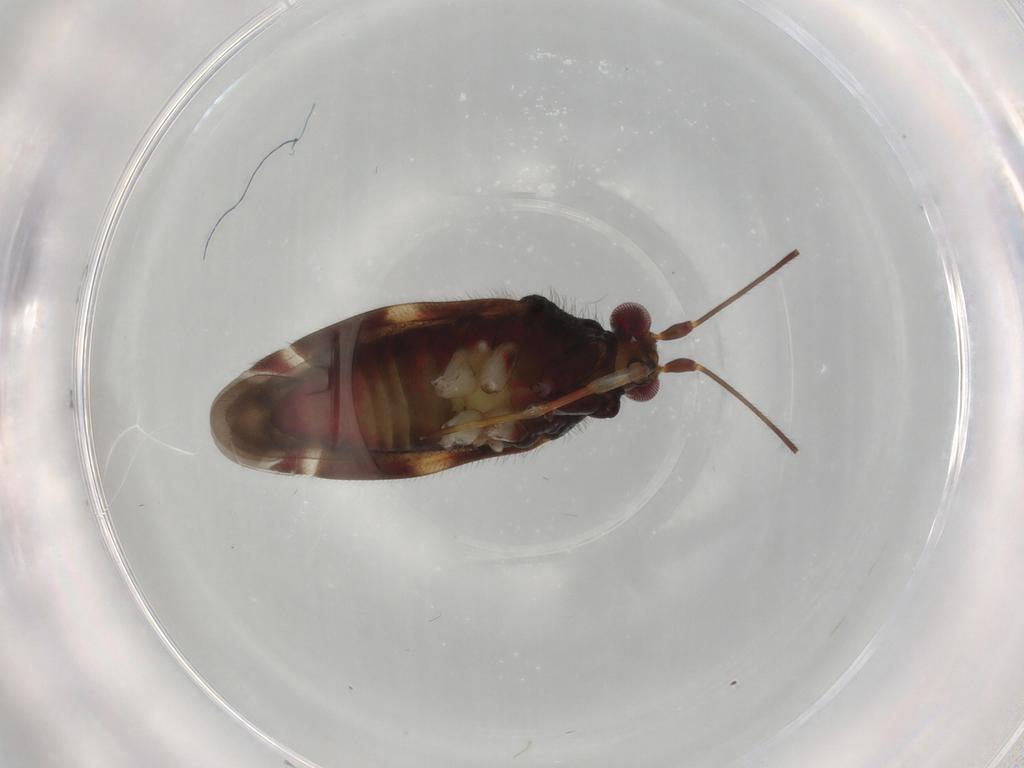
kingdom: Animalia
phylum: Arthropoda
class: Insecta
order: Hemiptera
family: Miridae
